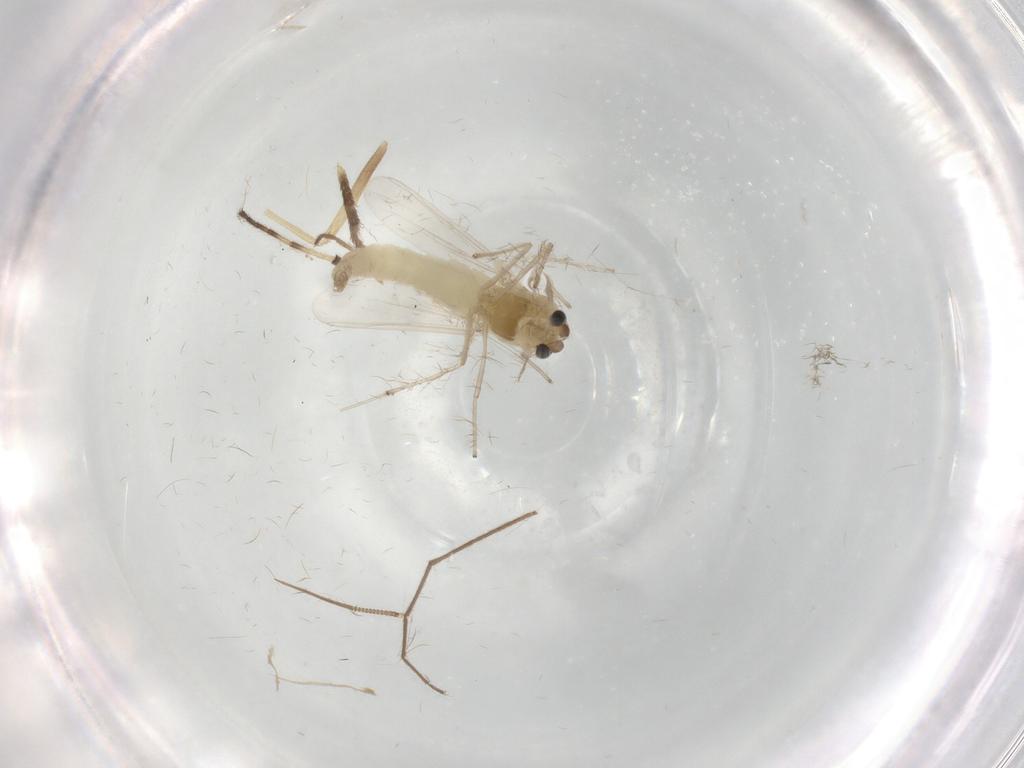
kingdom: Animalia
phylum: Arthropoda
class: Insecta
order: Diptera
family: Chironomidae
